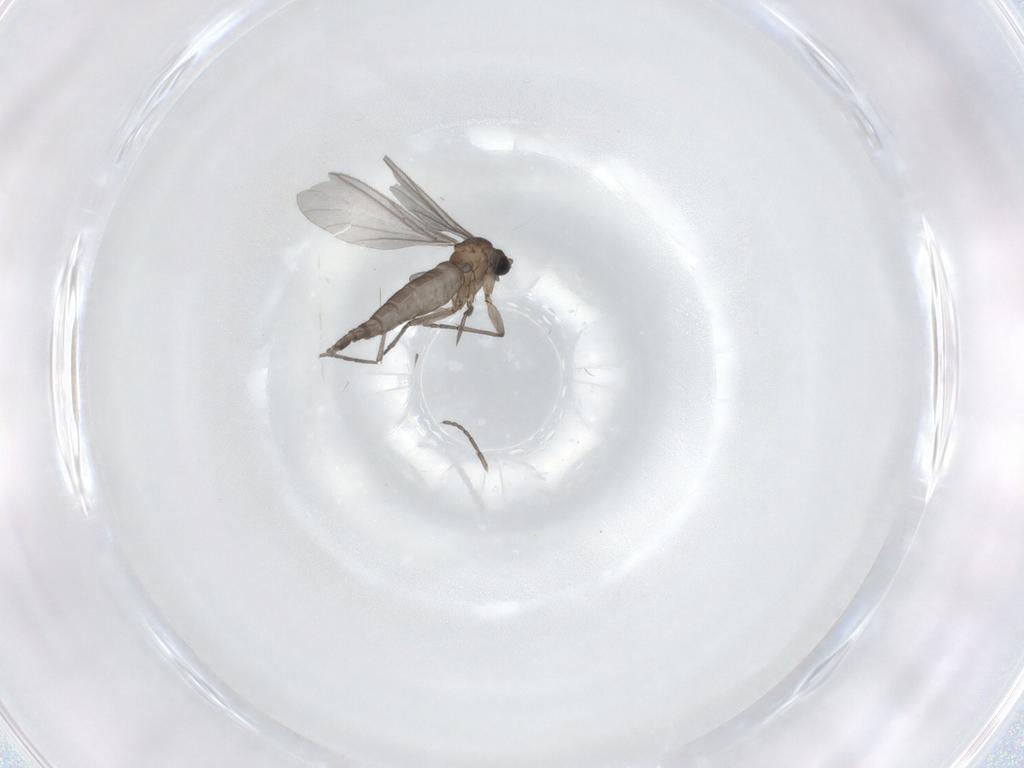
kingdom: Animalia
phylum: Arthropoda
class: Insecta
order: Diptera
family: Sciaridae
